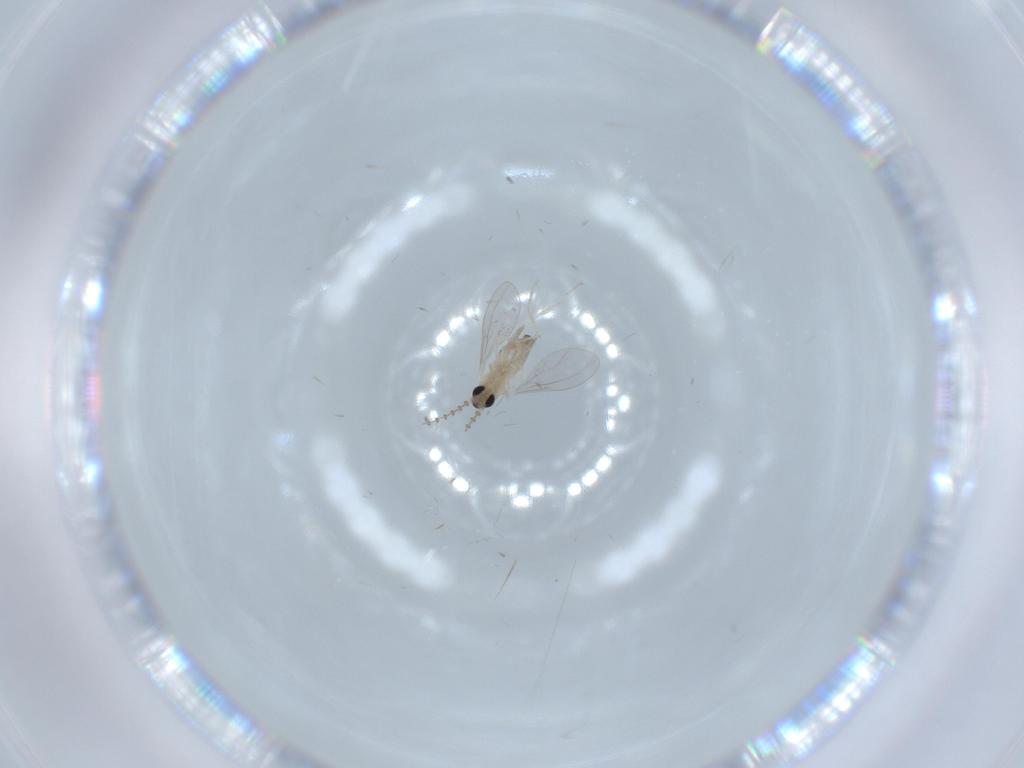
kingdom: Animalia
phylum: Arthropoda
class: Insecta
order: Diptera
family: Cecidomyiidae
